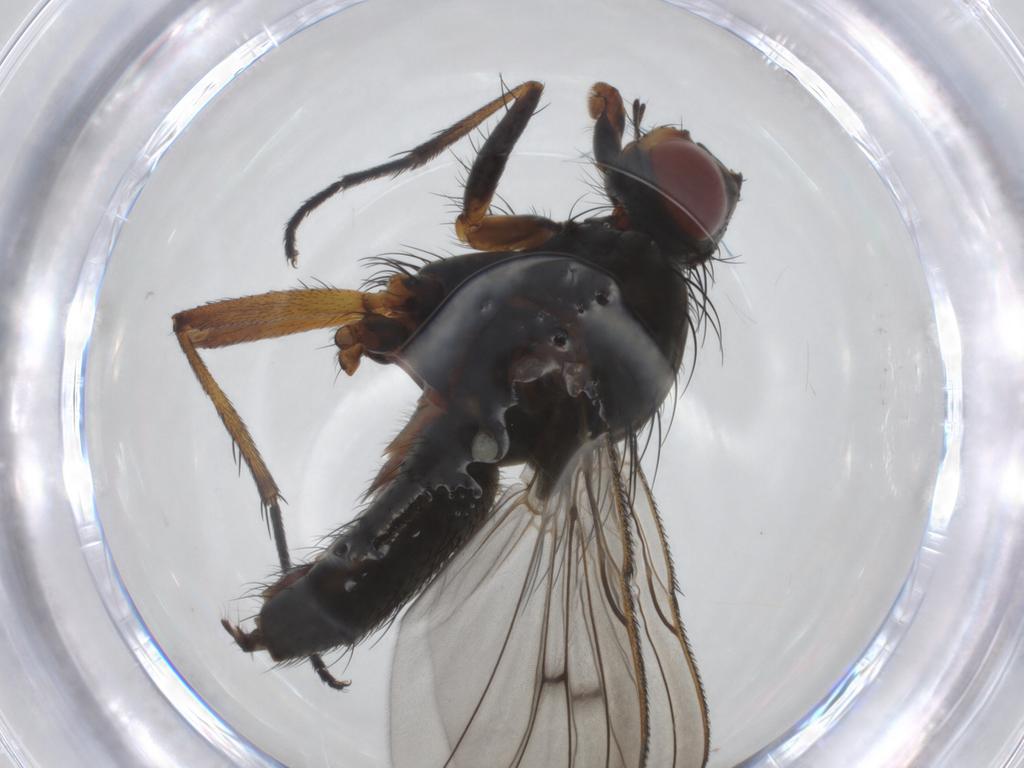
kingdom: Animalia
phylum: Arthropoda
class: Insecta
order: Diptera
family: Anthomyiidae
